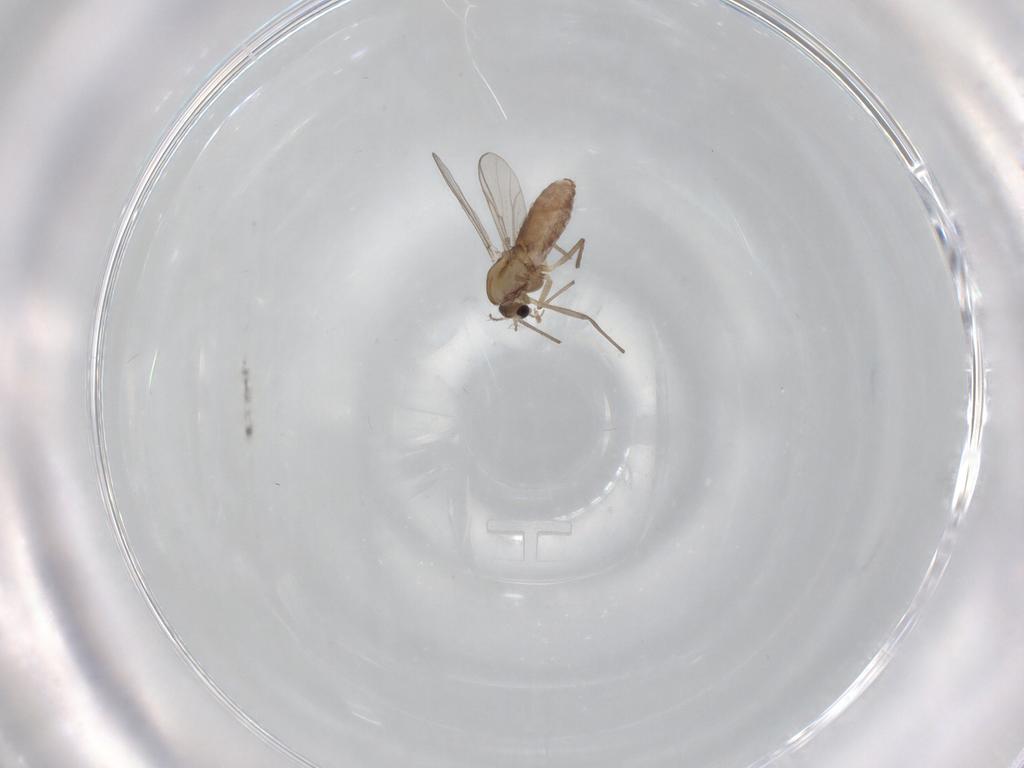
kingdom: Animalia
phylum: Arthropoda
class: Insecta
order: Diptera
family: Chironomidae
